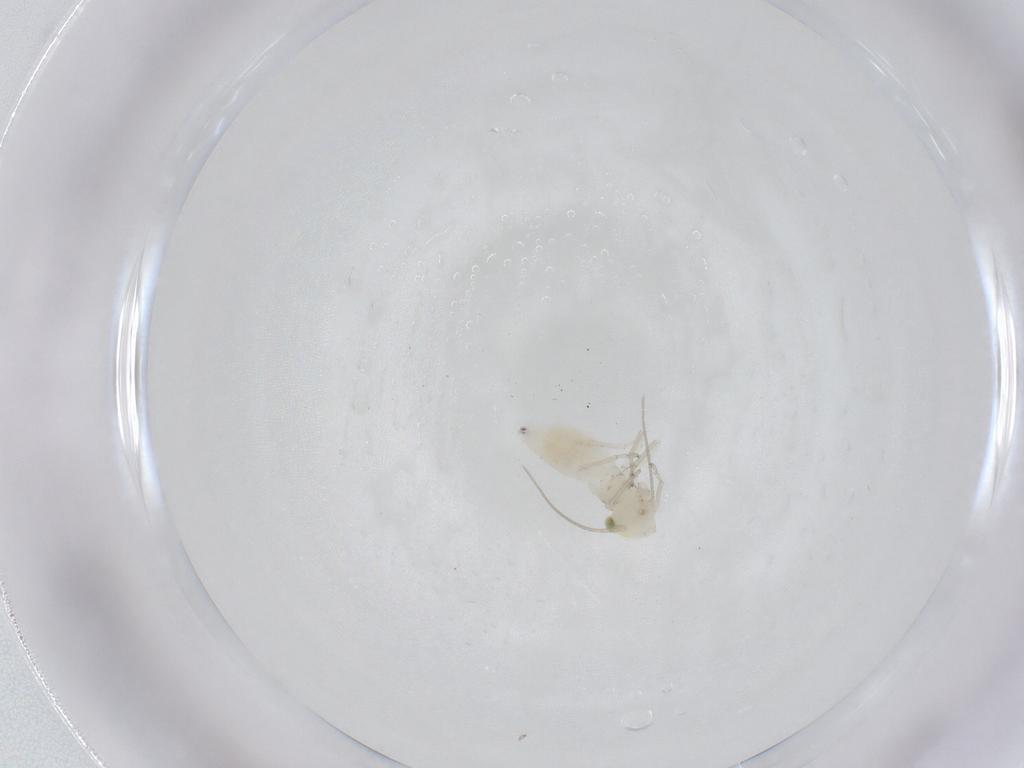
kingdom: Animalia
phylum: Arthropoda
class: Insecta
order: Psocodea
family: Caeciliusidae
